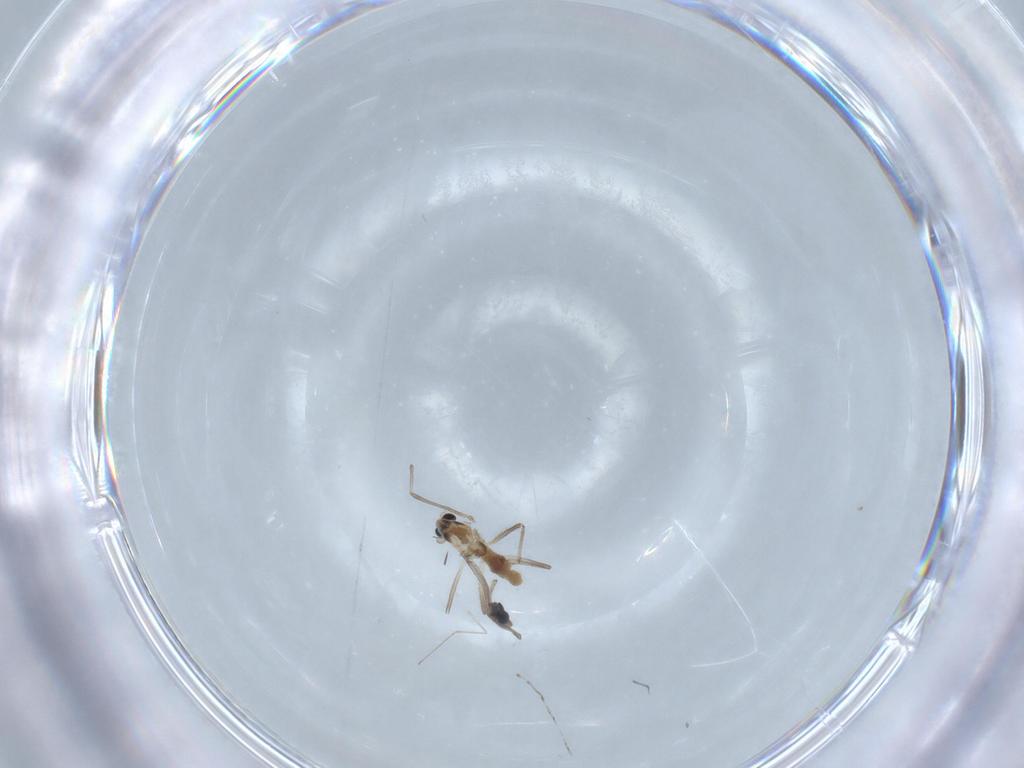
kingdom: Animalia
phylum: Arthropoda
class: Insecta
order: Diptera
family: Cecidomyiidae
